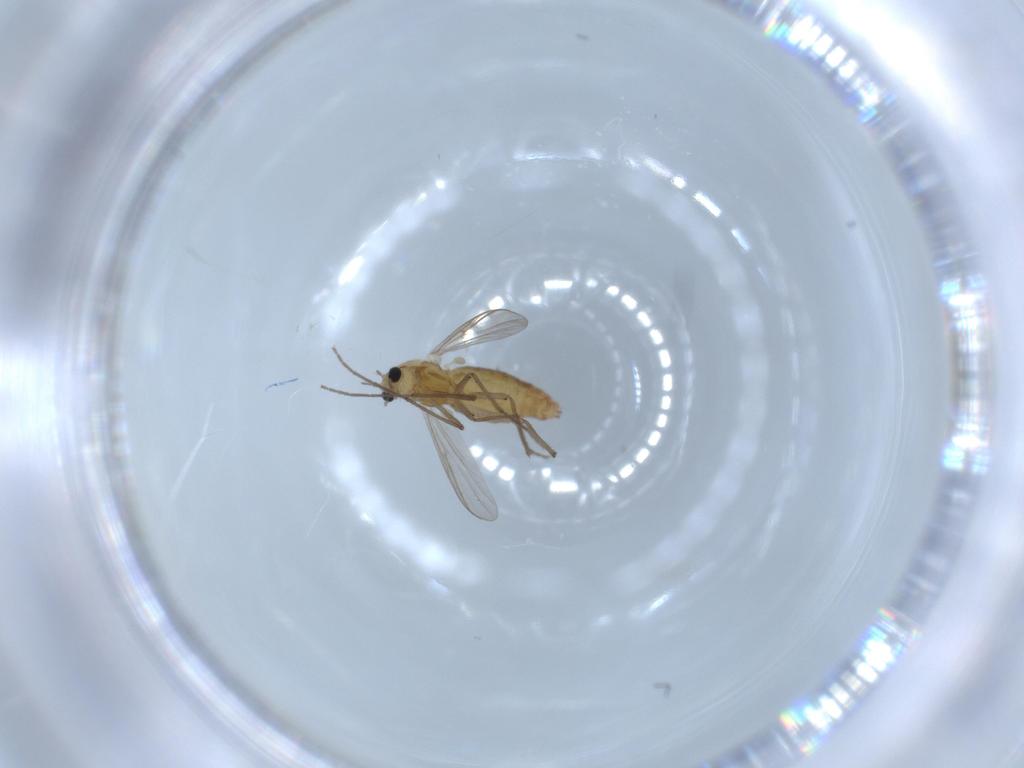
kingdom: Animalia
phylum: Arthropoda
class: Insecta
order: Diptera
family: Chironomidae
